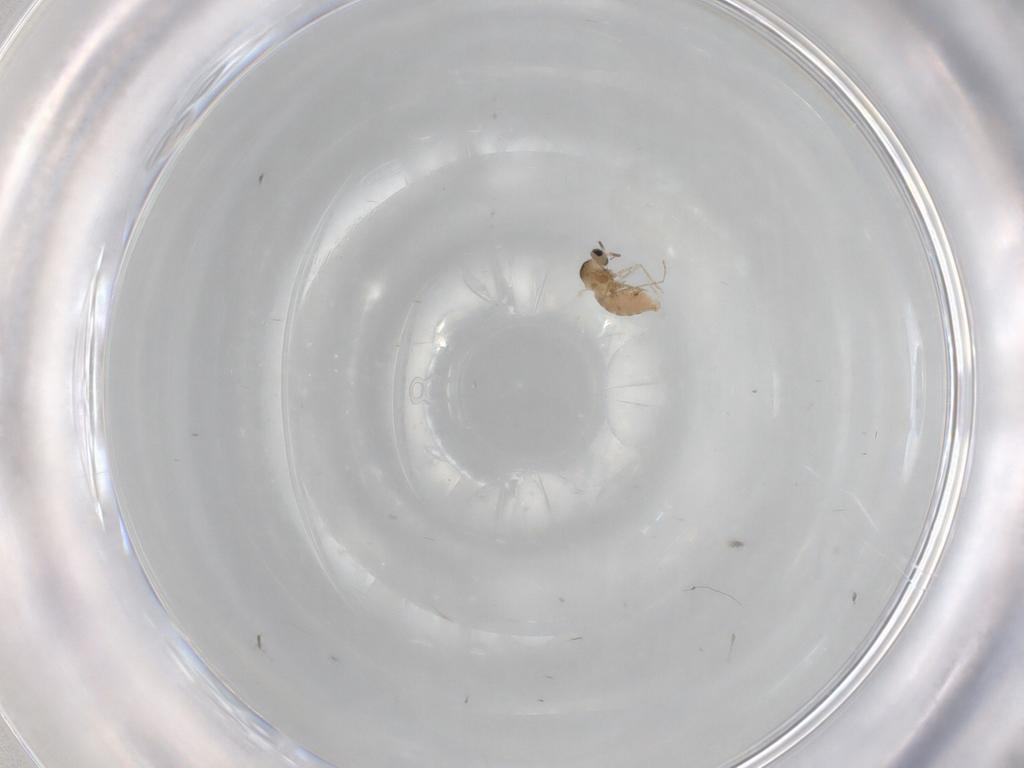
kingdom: Animalia
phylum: Arthropoda
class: Insecta
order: Diptera
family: Cecidomyiidae
